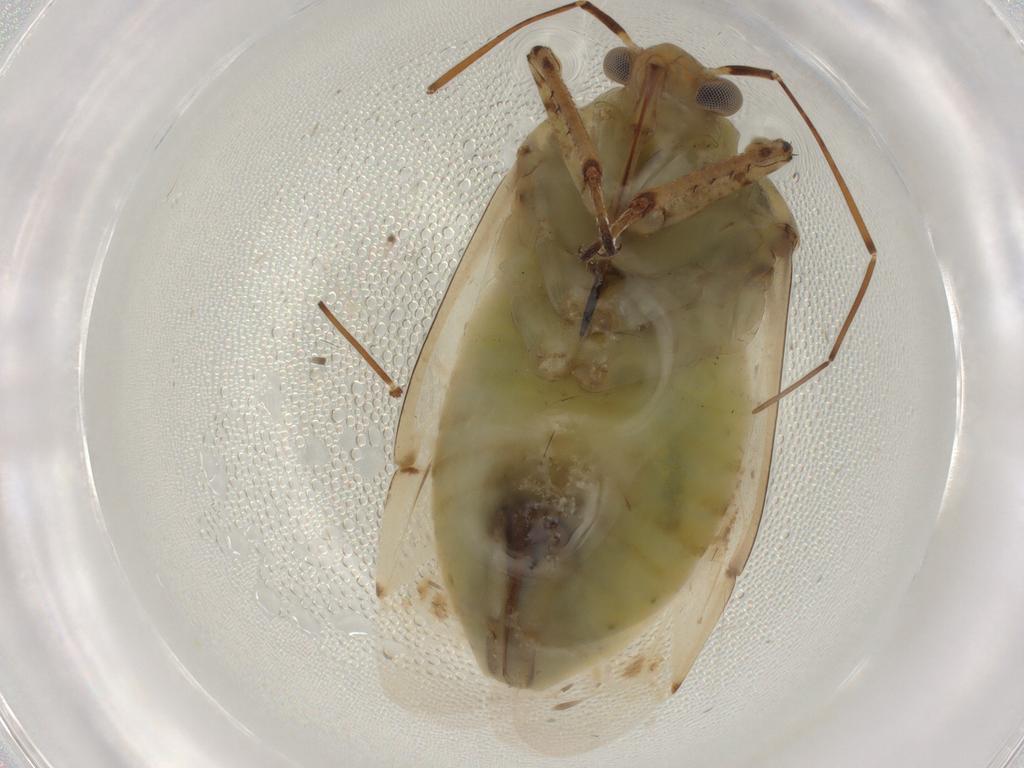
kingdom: Animalia
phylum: Arthropoda
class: Insecta
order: Hemiptera
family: Miridae
